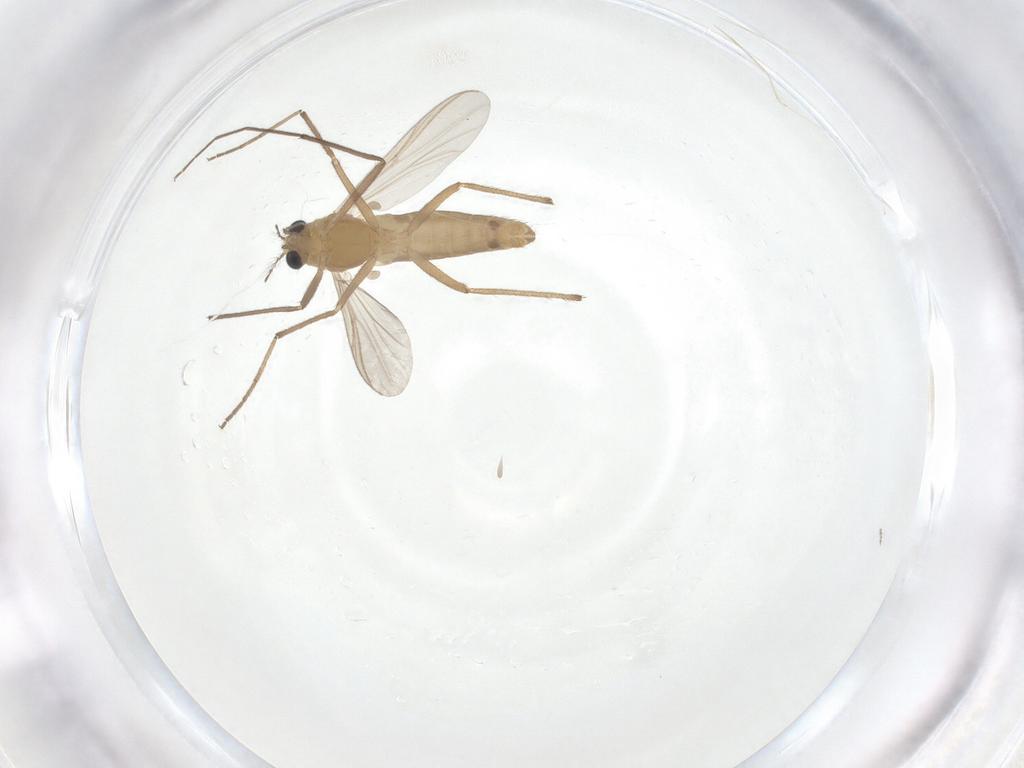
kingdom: Animalia
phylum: Arthropoda
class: Insecta
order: Diptera
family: Chironomidae
